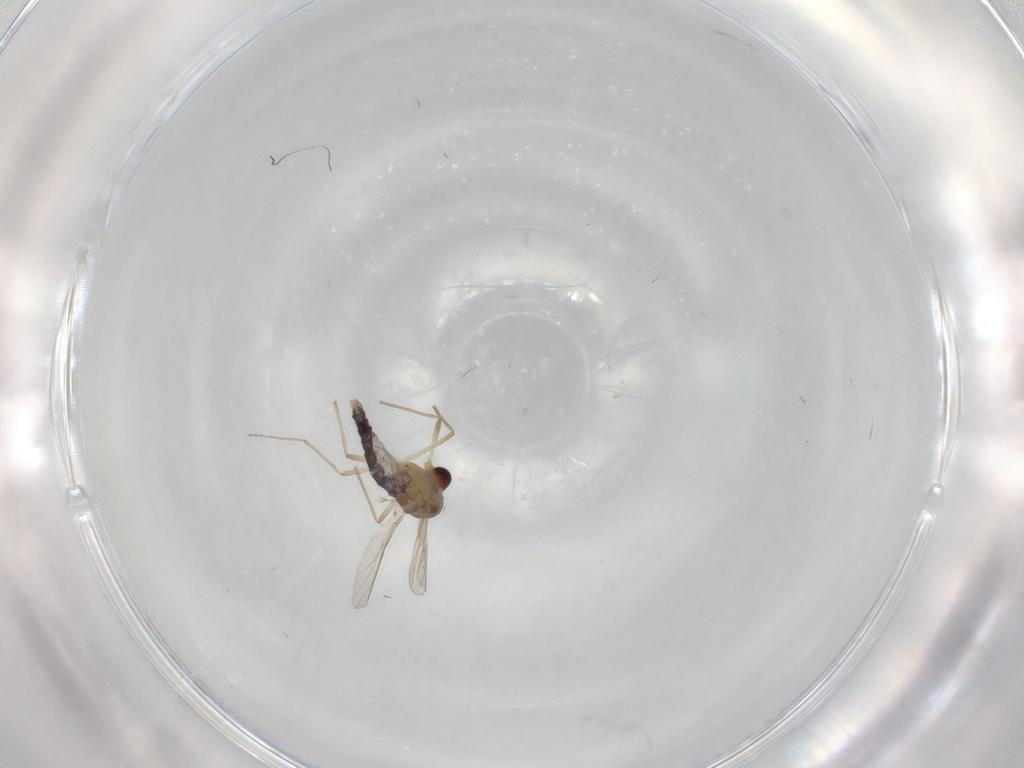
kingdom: Animalia
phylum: Arthropoda
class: Insecta
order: Diptera
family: Chironomidae
